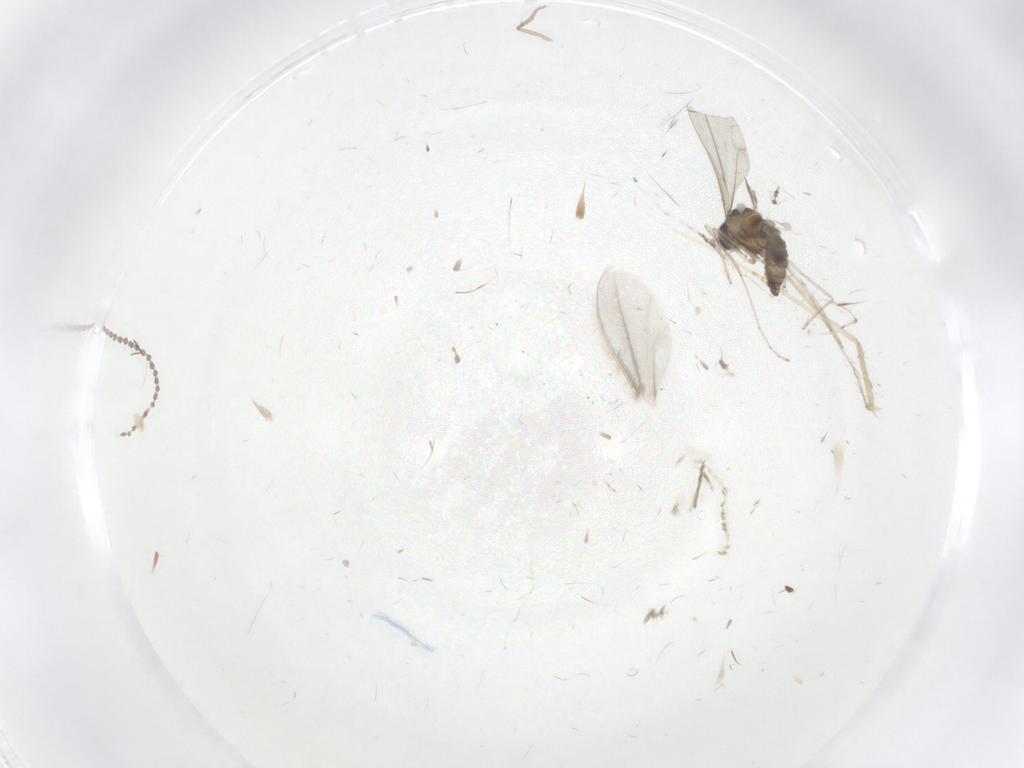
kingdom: Animalia
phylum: Arthropoda
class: Insecta
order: Diptera
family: Cecidomyiidae
